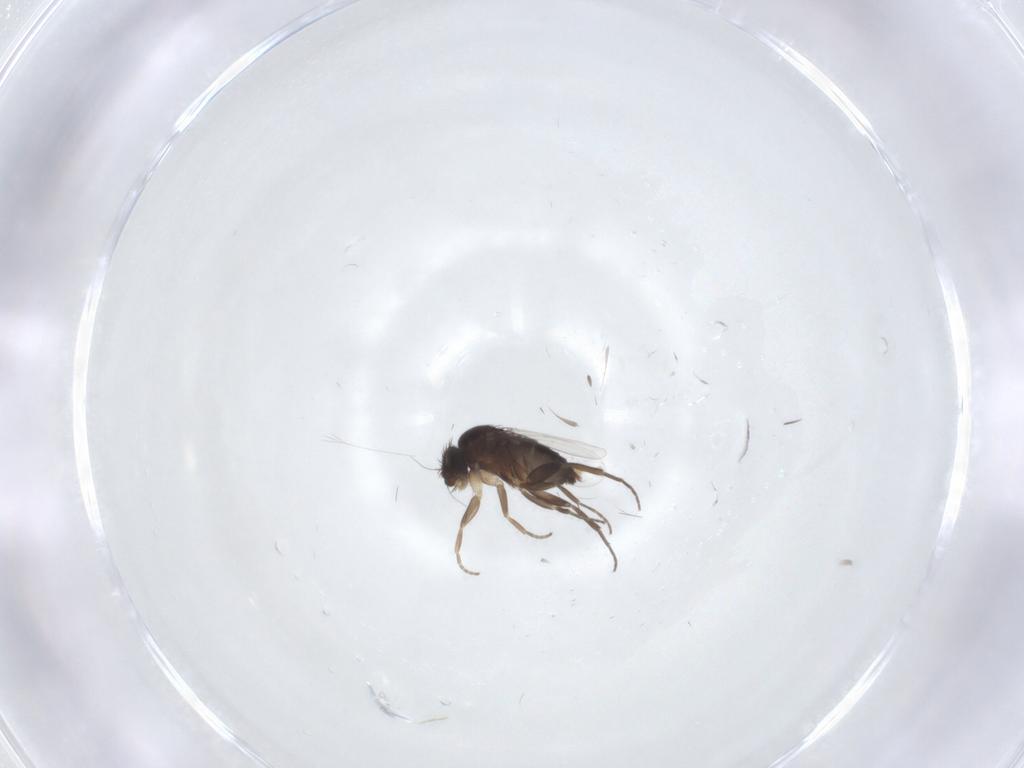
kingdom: Animalia
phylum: Arthropoda
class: Insecta
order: Diptera
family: Phoridae
